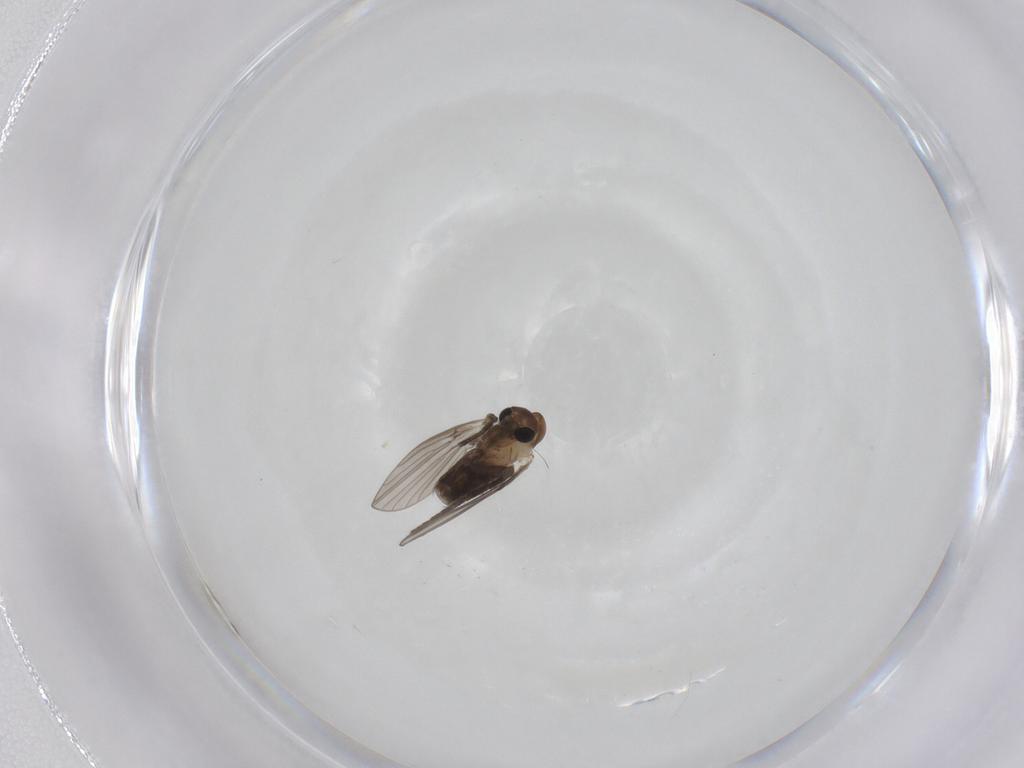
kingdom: Animalia
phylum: Arthropoda
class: Insecta
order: Diptera
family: Psychodidae
